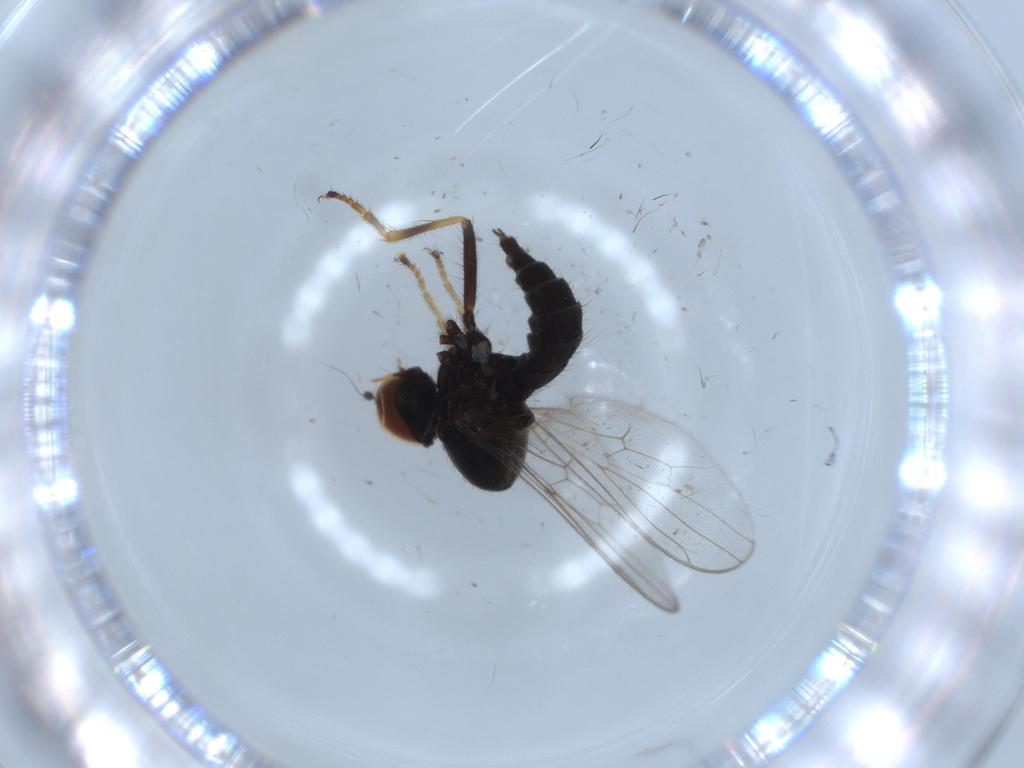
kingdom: Animalia
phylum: Arthropoda
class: Insecta
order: Diptera
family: Hybotidae
